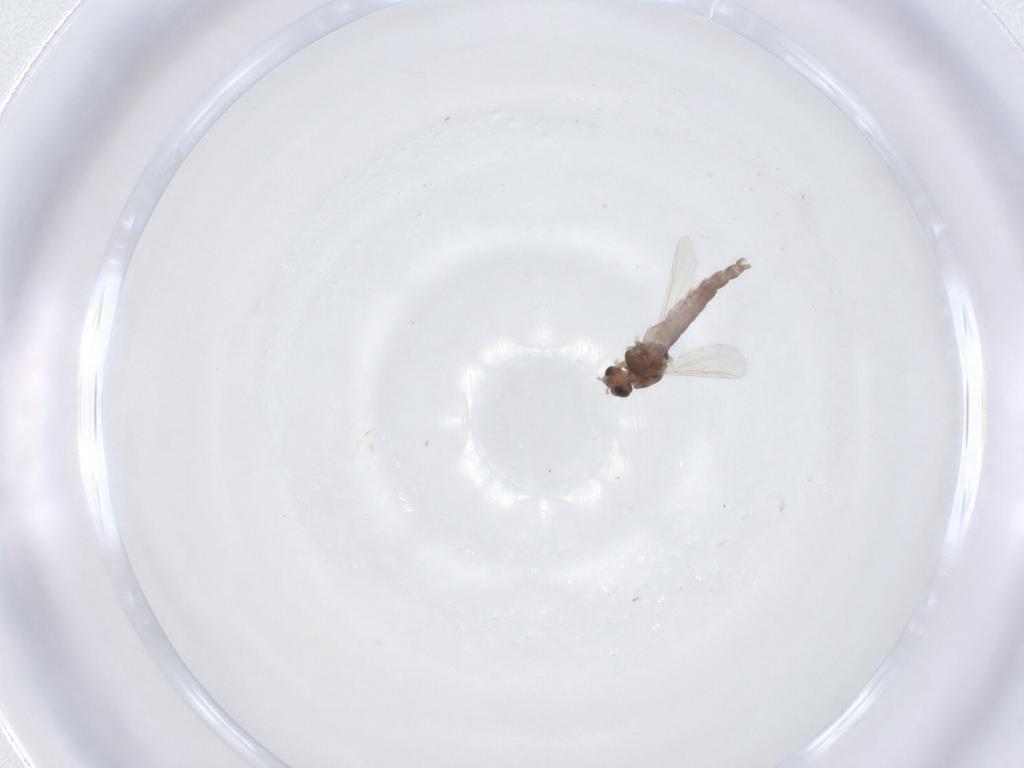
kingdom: Animalia
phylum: Arthropoda
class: Insecta
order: Diptera
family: Chironomidae
